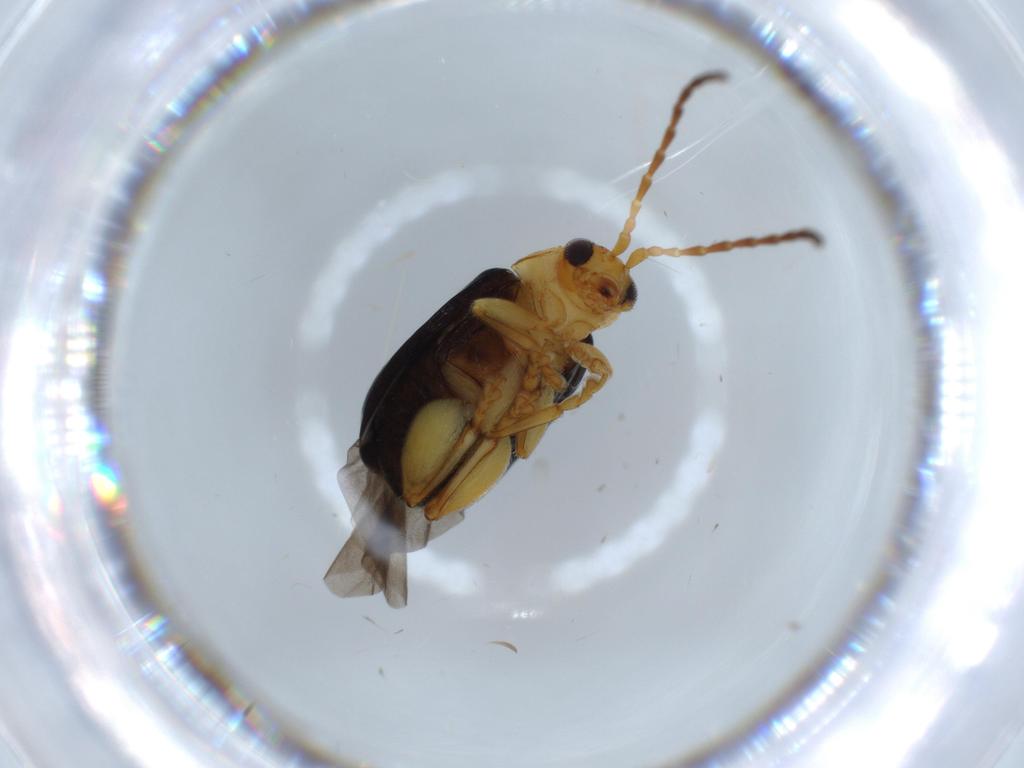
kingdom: Animalia
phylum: Arthropoda
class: Insecta
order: Coleoptera
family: Chrysomelidae
